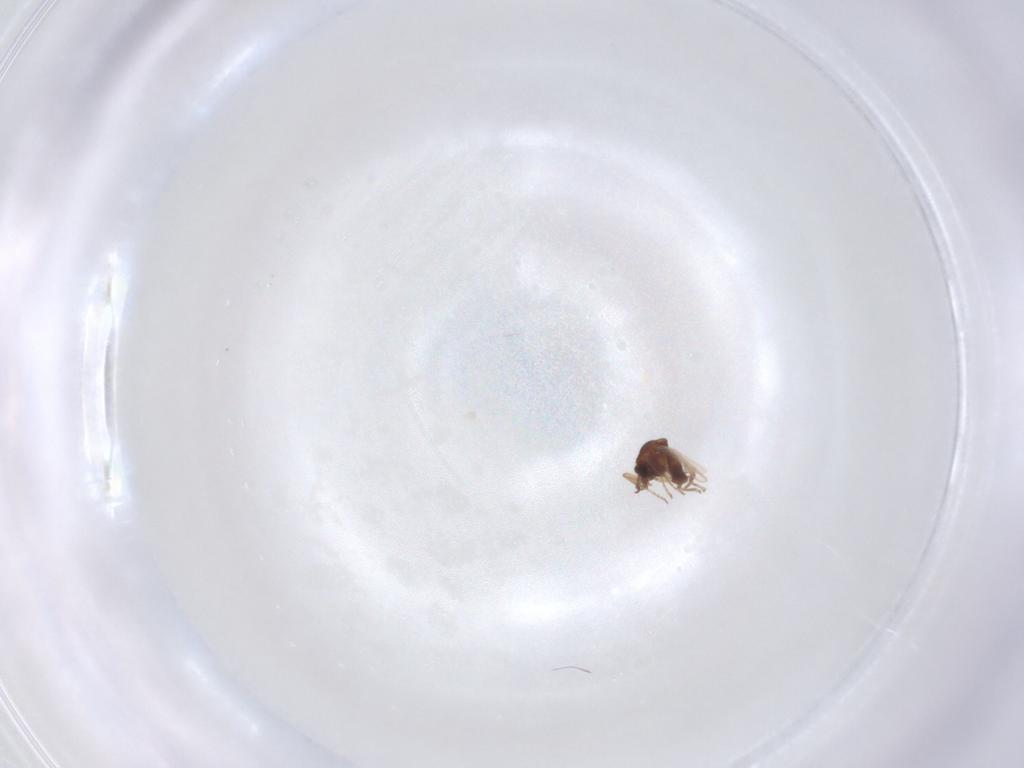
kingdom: Animalia
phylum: Arthropoda
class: Insecta
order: Diptera
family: Ceratopogonidae
